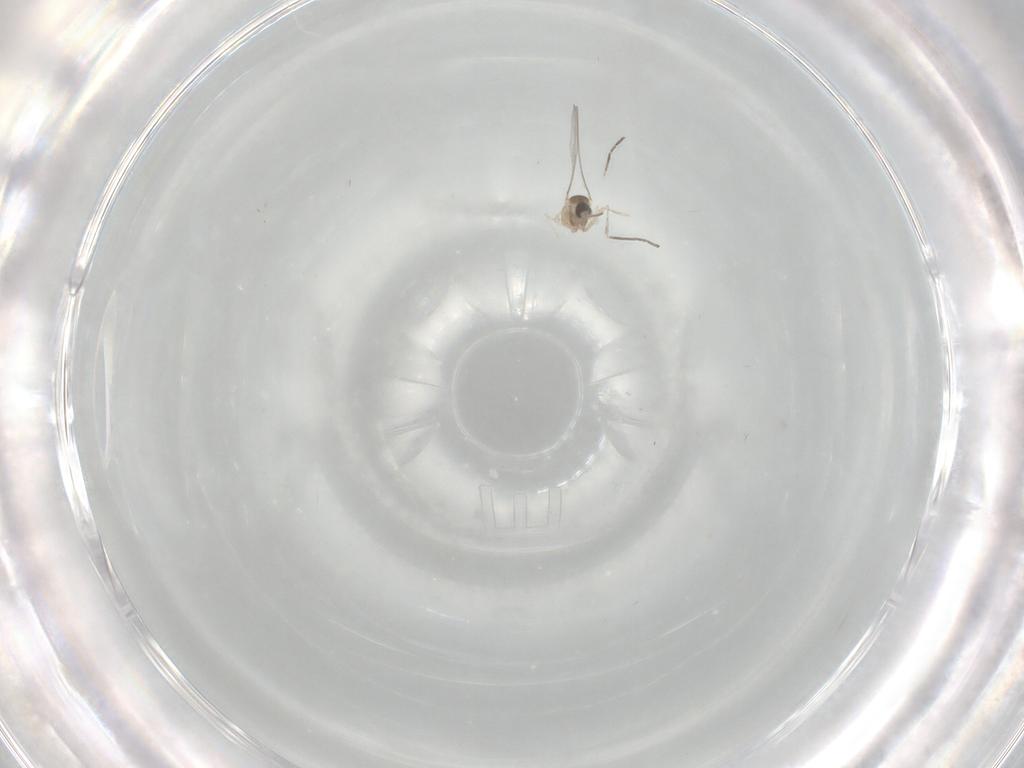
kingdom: Animalia
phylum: Arthropoda
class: Insecta
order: Diptera
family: Cecidomyiidae
